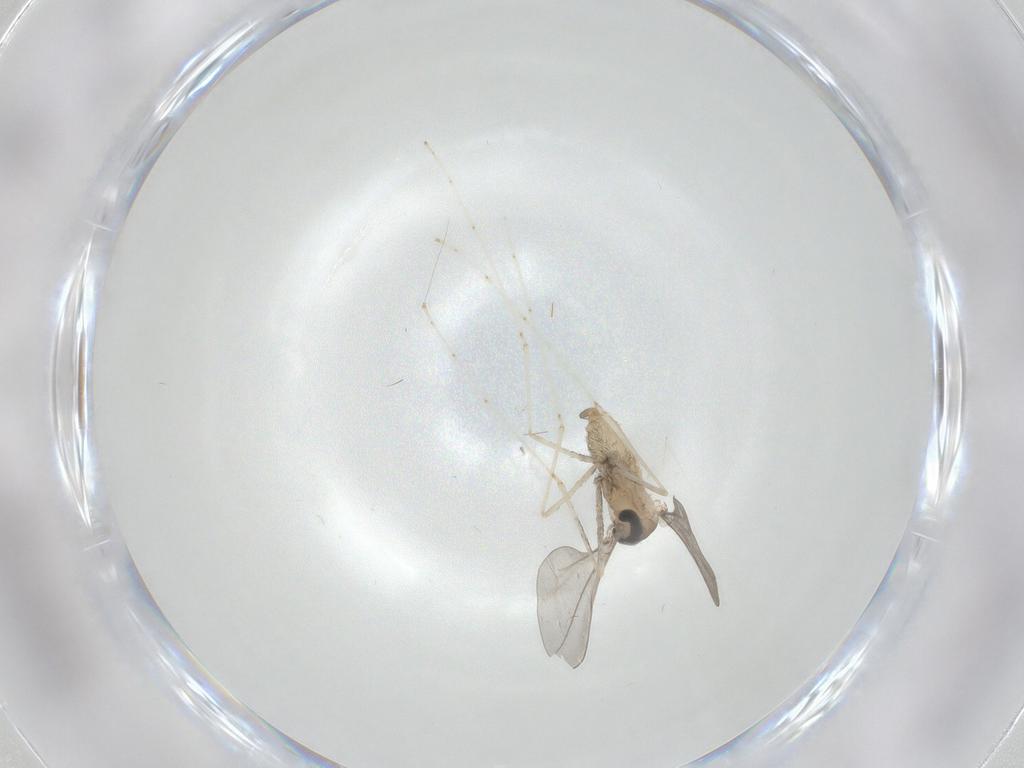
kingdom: Animalia
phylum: Arthropoda
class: Insecta
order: Diptera
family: Cecidomyiidae
